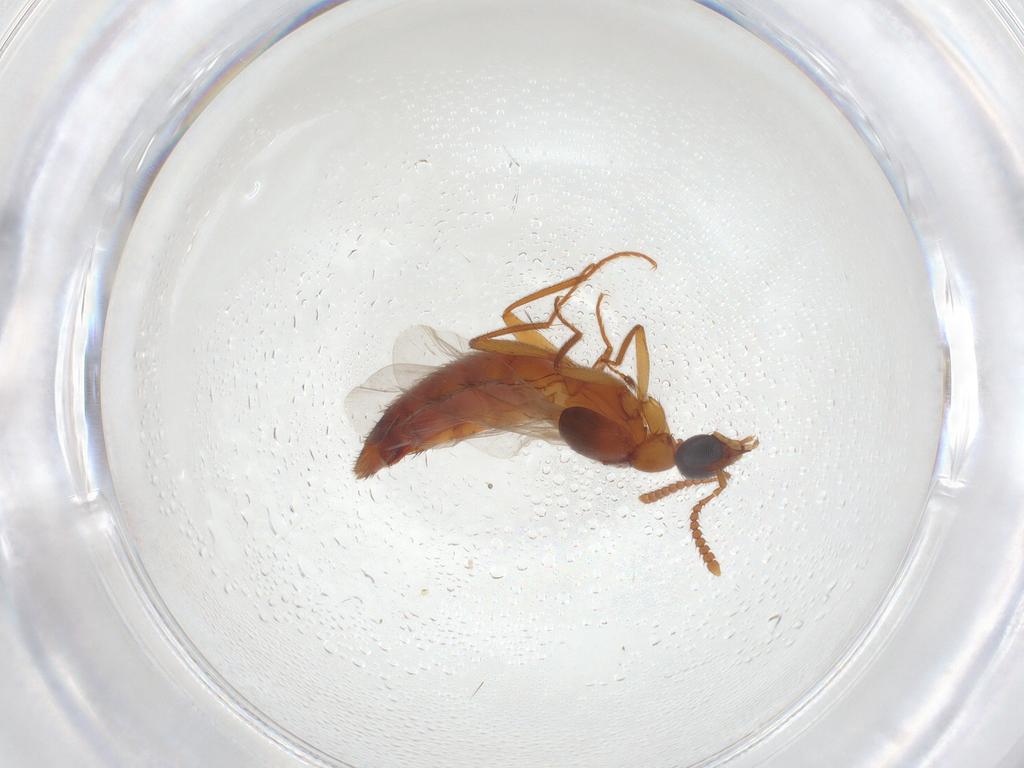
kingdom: Animalia
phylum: Arthropoda
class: Insecta
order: Coleoptera
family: Staphylinidae
